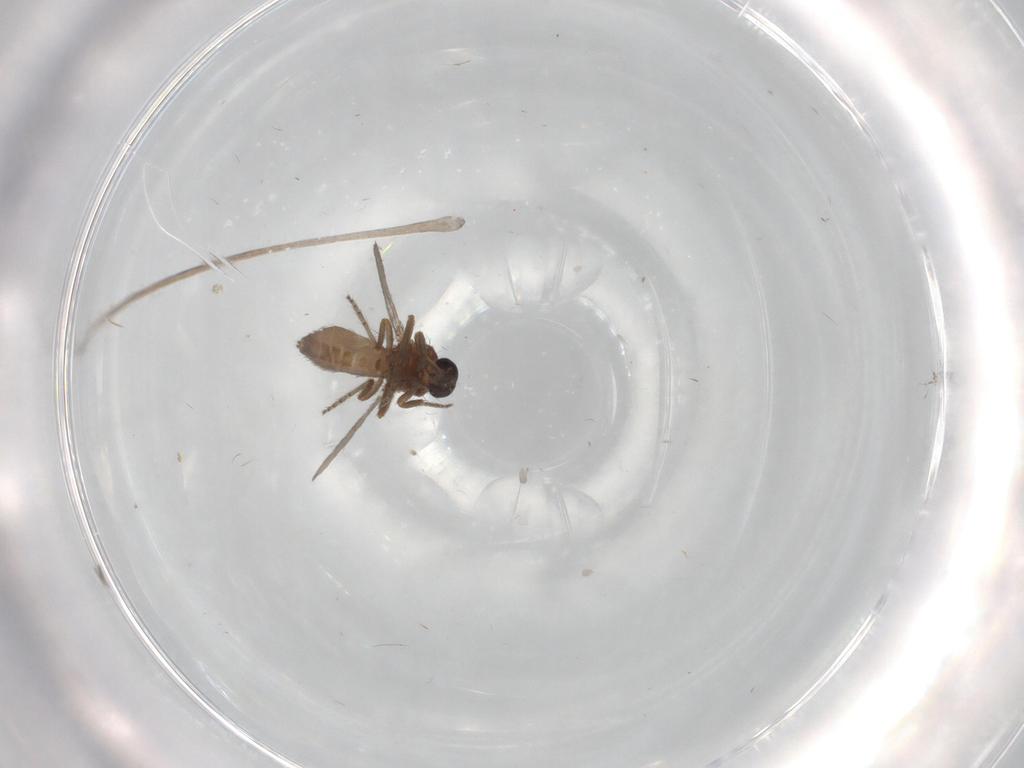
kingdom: Animalia
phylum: Arthropoda
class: Insecta
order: Diptera
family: Ceratopogonidae
